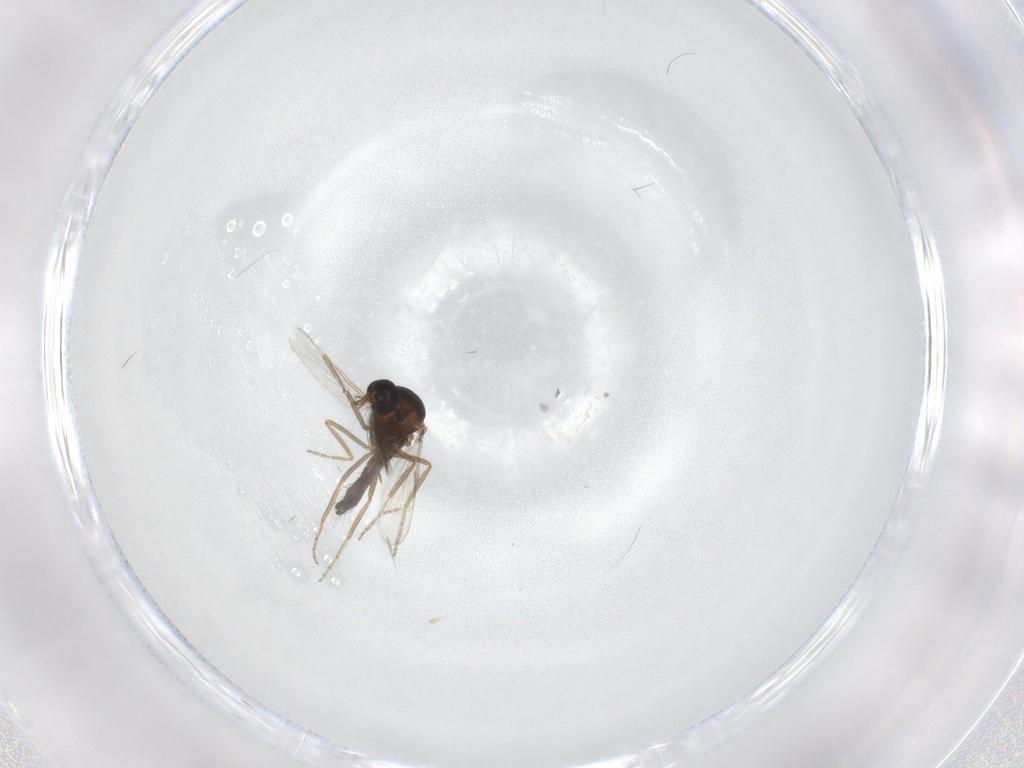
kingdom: Animalia
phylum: Arthropoda
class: Insecta
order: Diptera
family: Ceratopogonidae
